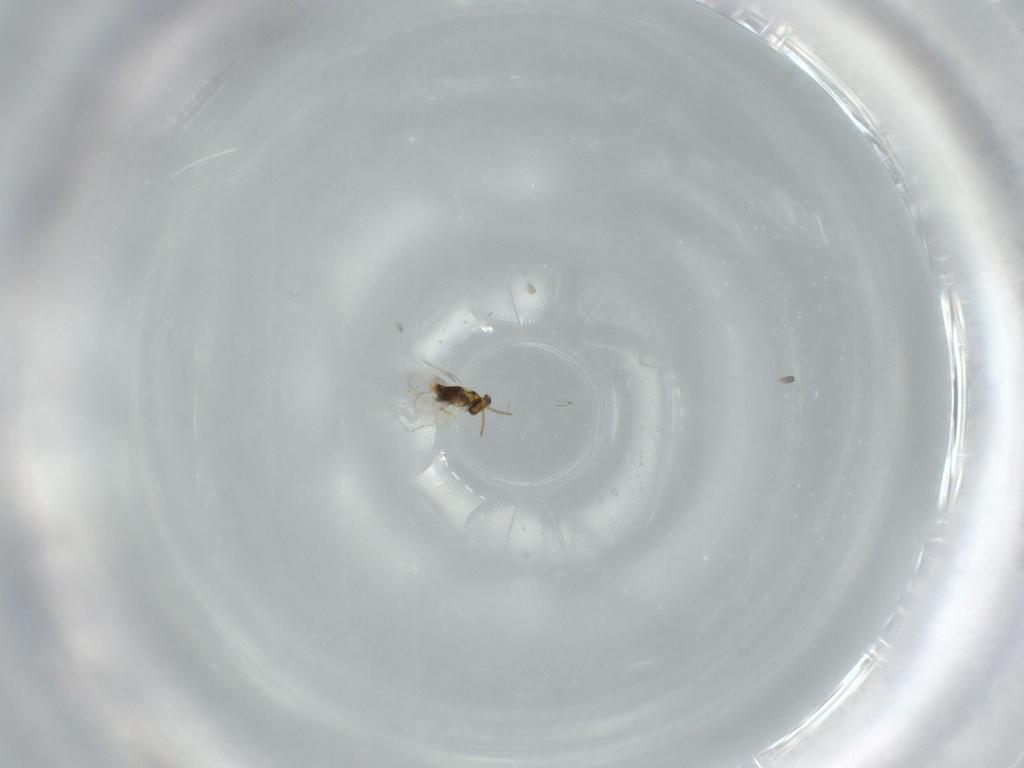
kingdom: Animalia
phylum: Arthropoda
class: Insecta
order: Hymenoptera
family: Aphelinidae
